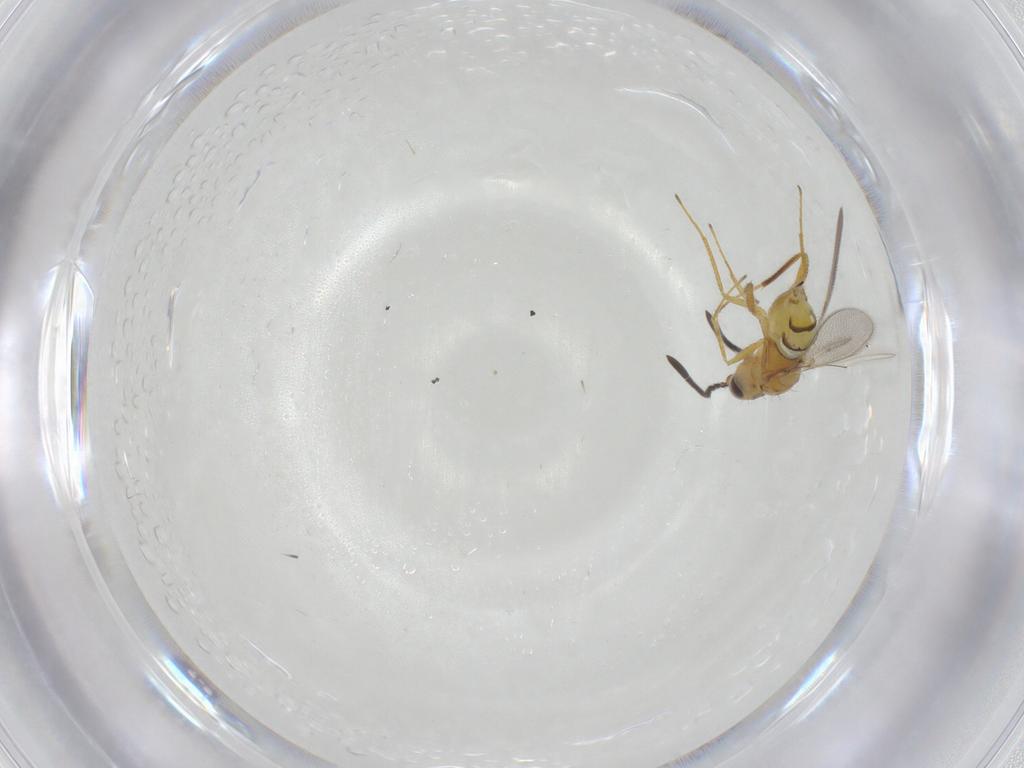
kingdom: Animalia
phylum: Arthropoda
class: Insecta
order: Hymenoptera
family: Mymaridae
